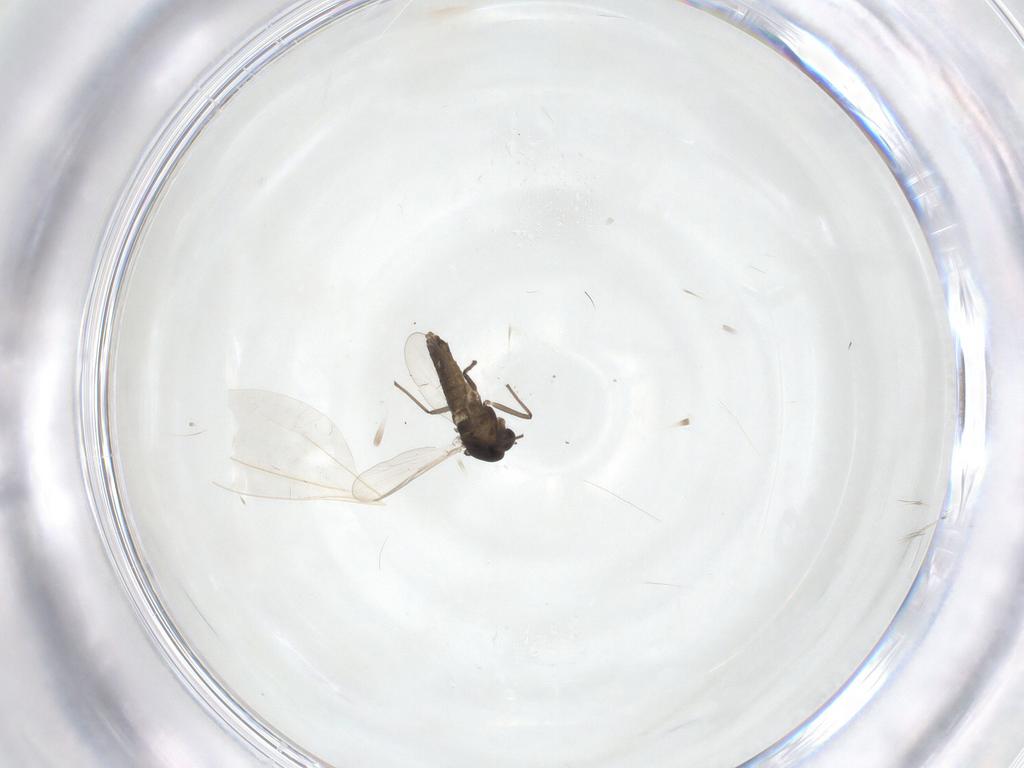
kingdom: Animalia
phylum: Arthropoda
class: Insecta
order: Diptera
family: Chironomidae
